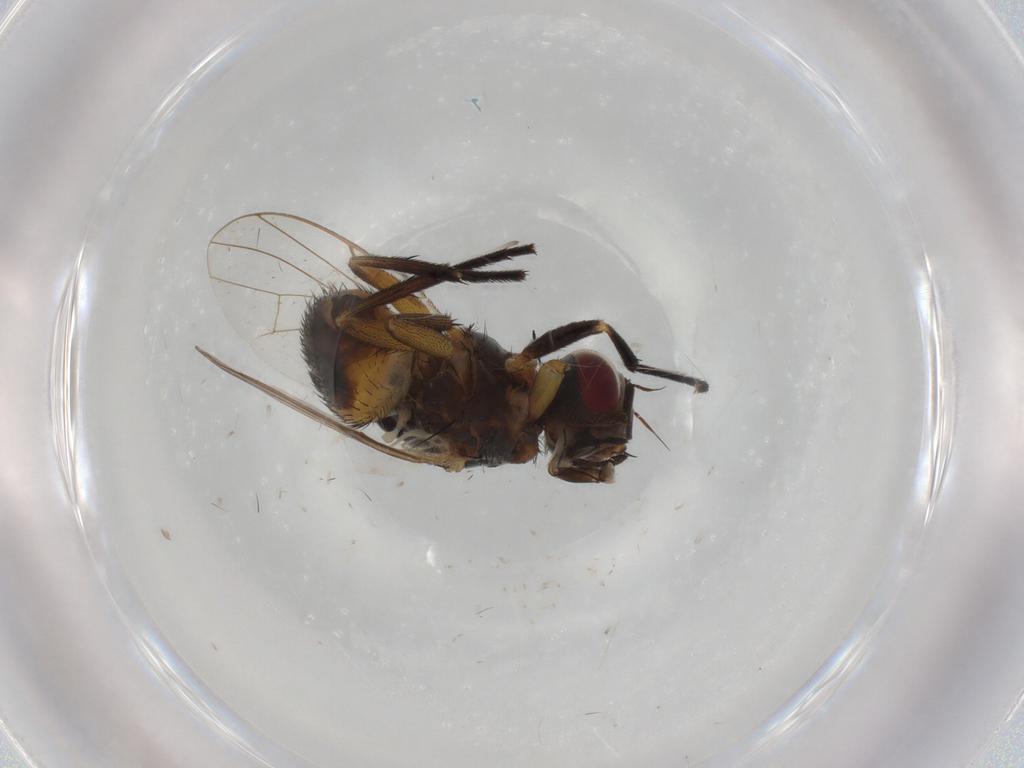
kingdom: Animalia
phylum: Arthropoda
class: Insecta
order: Diptera
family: Muscidae
